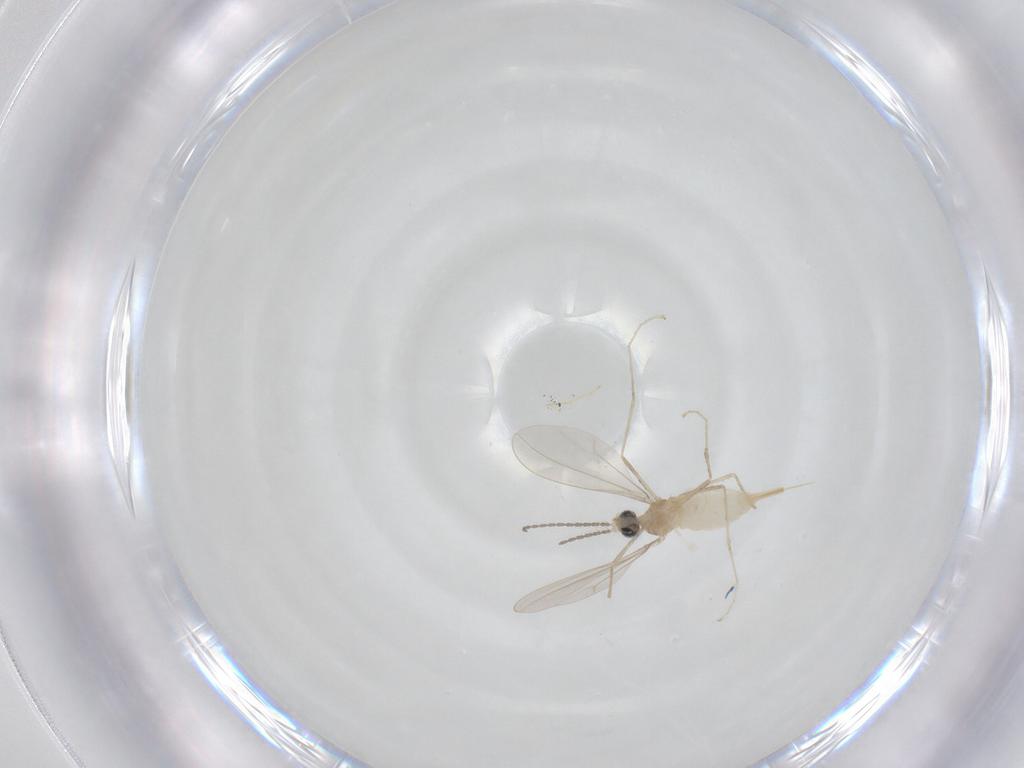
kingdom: Animalia
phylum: Arthropoda
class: Insecta
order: Diptera
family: Cecidomyiidae
